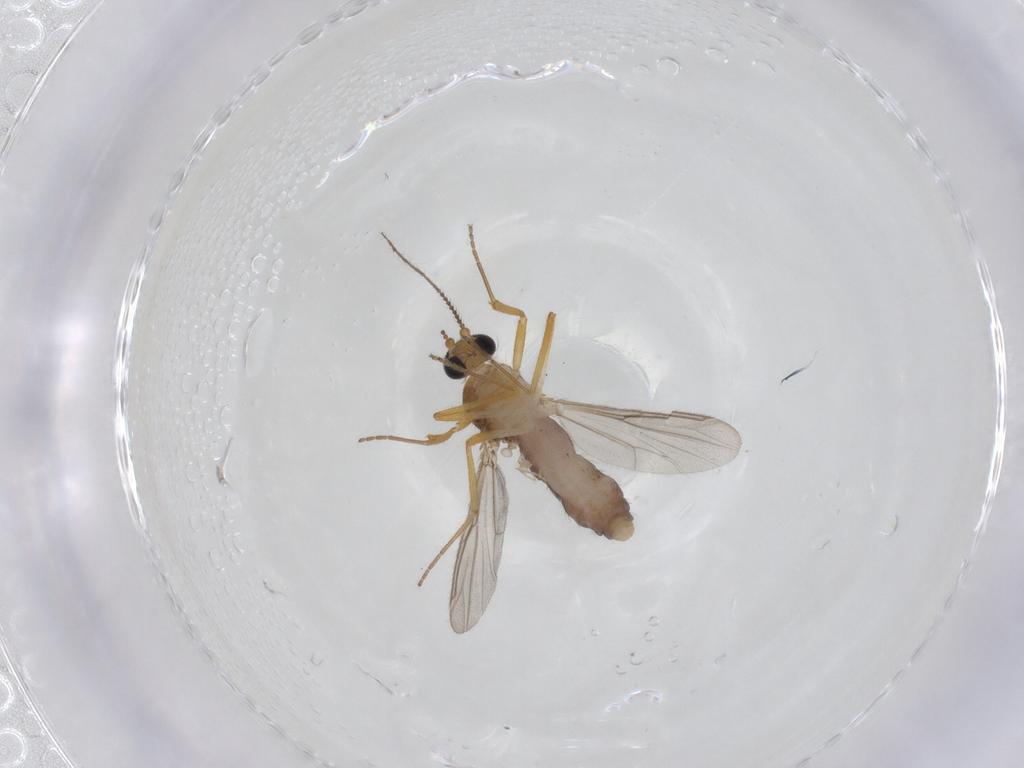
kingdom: Animalia
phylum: Arthropoda
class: Insecta
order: Diptera
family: Ceratopogonidae
